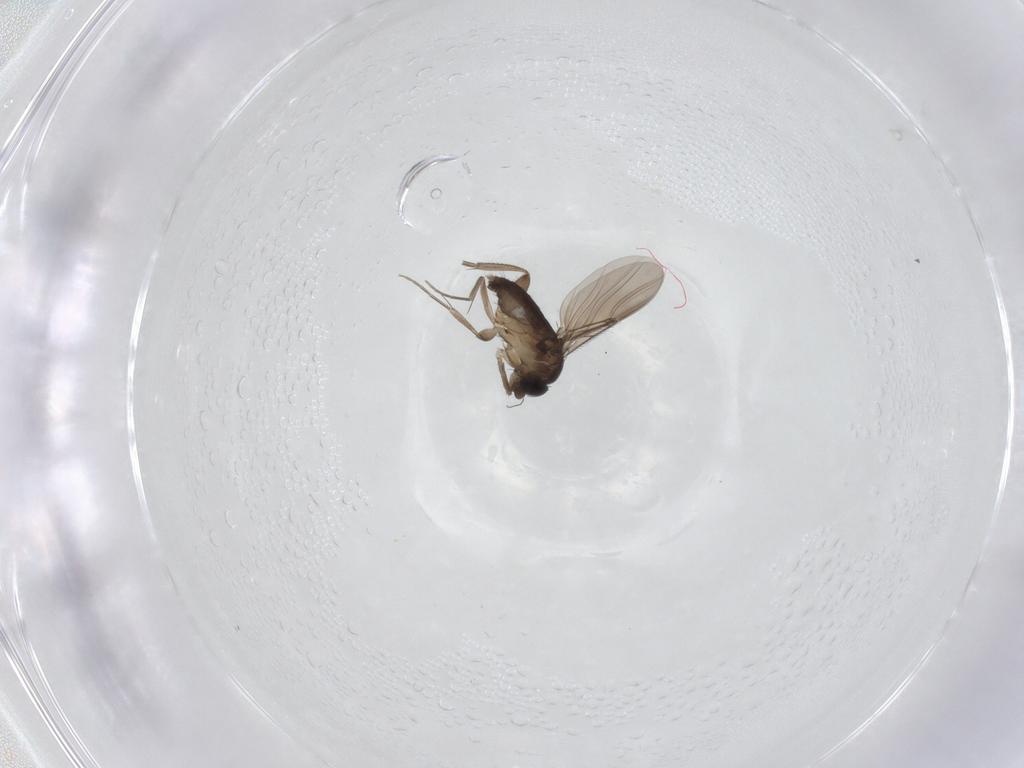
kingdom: Animalia
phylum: Arthropoda
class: Insecta
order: Diptera
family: Phoridae
